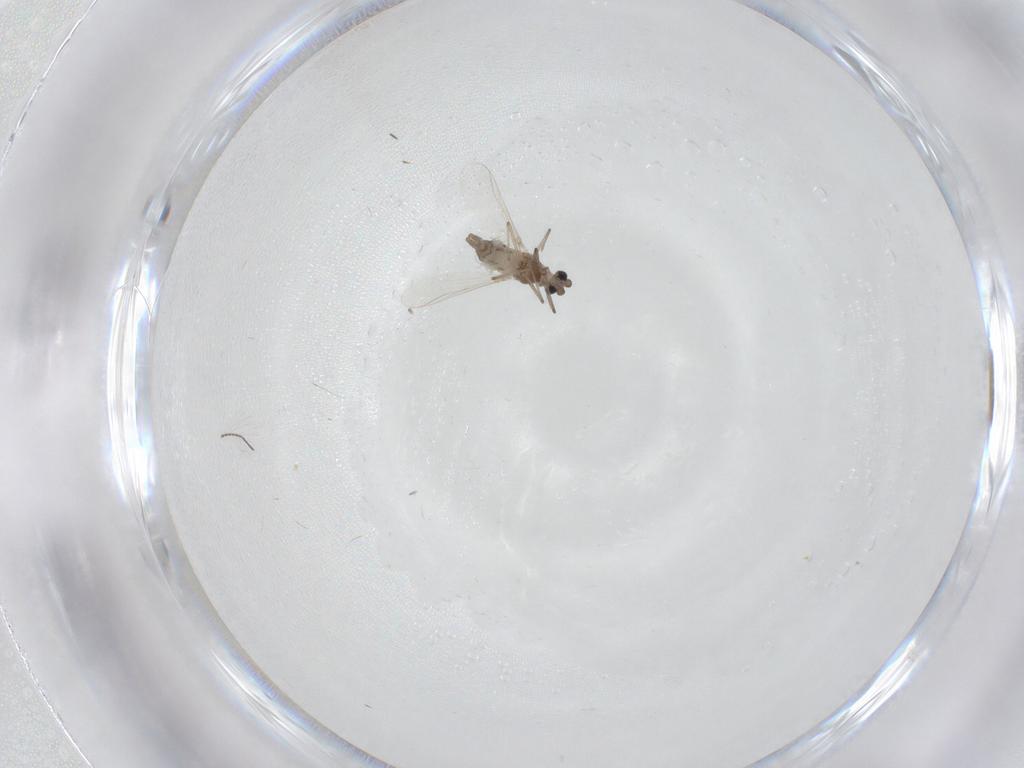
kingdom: Animalia
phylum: Arthropoda
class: Insecta
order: Diptera
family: Chironomidae
